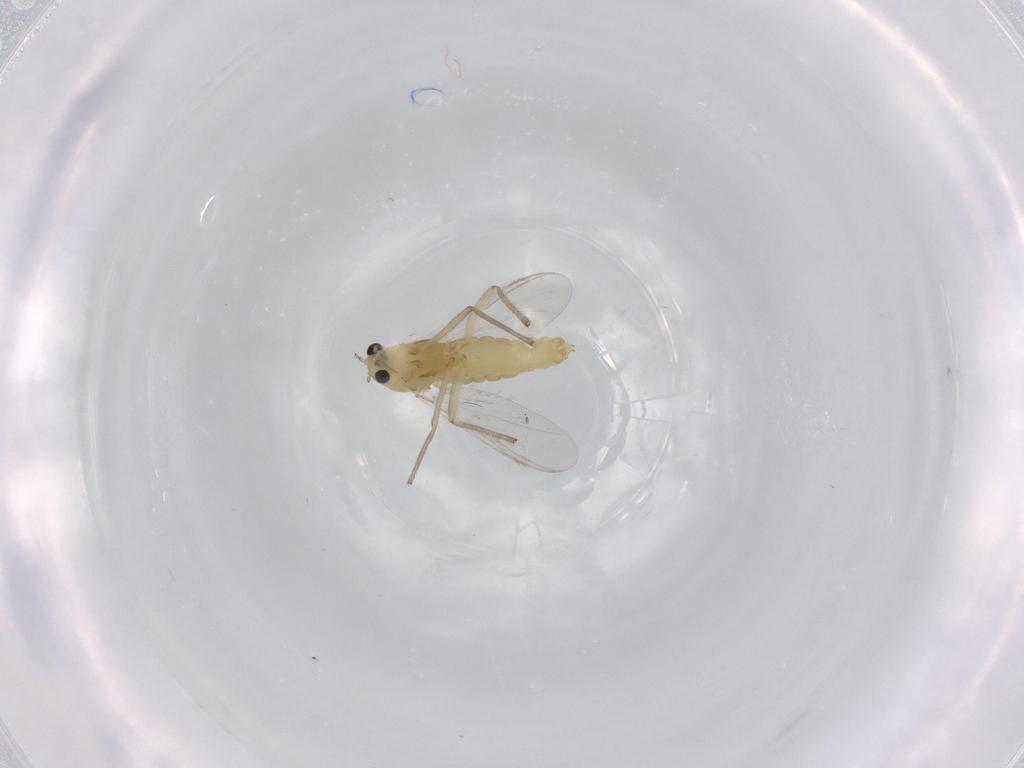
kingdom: Animalia
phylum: Arthropoda
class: Insecta
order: Diptera
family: Chironomidae
